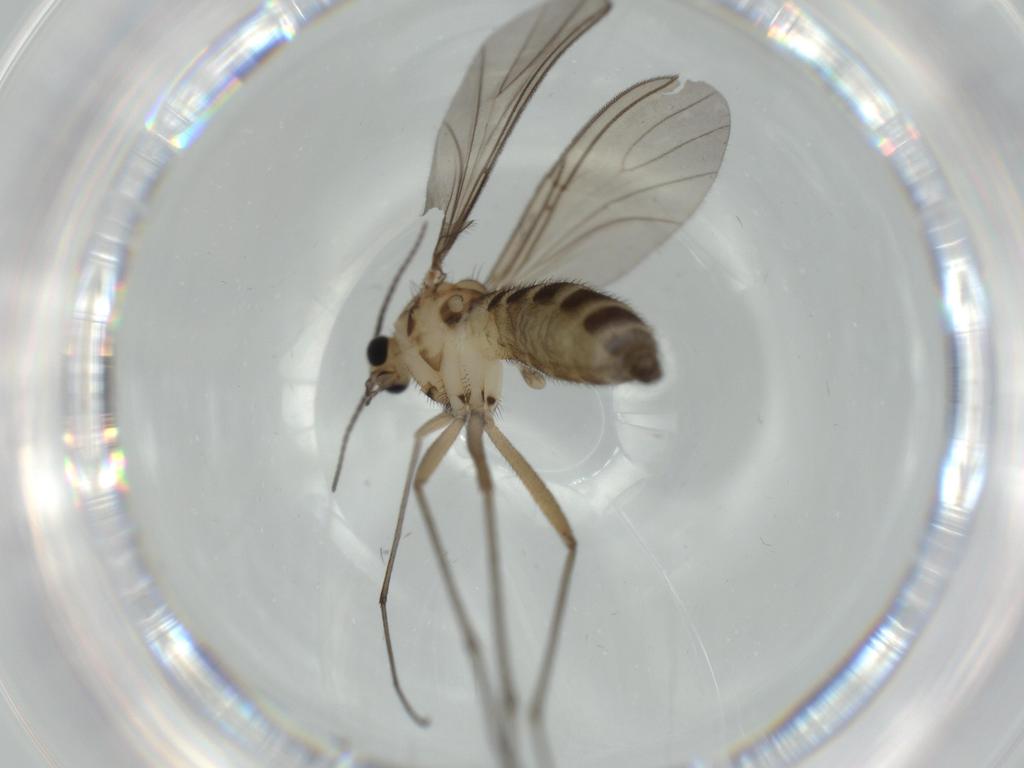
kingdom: Animalia
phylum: Arthropoda
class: Insecta
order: Diptera
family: Sciaridae
